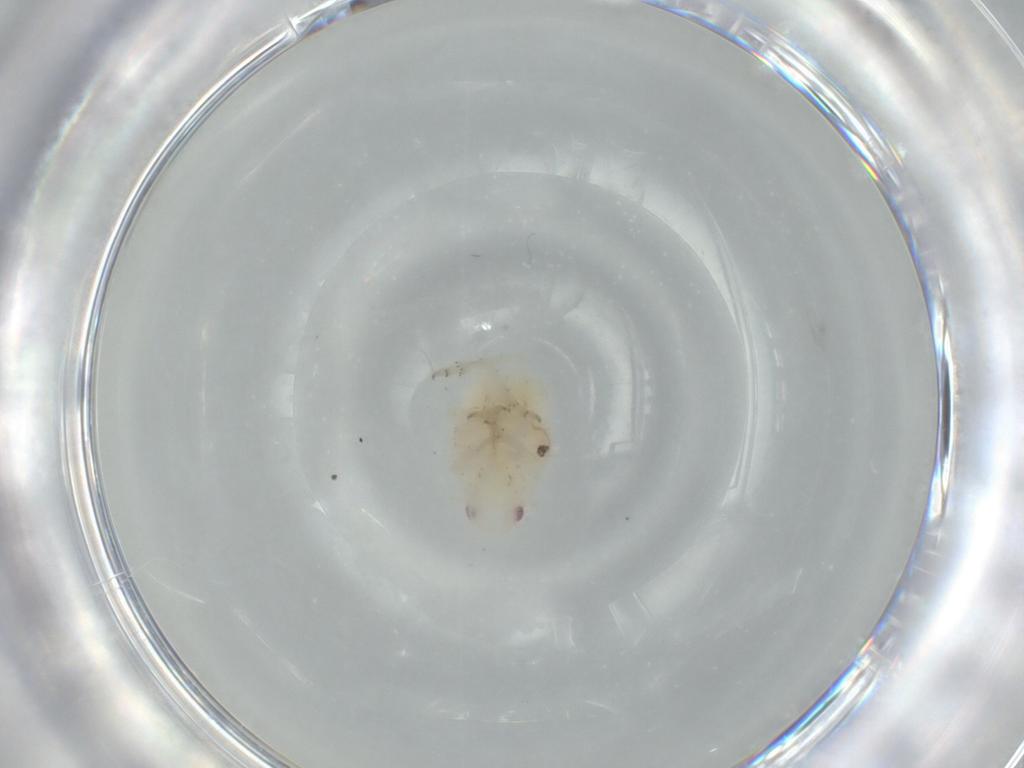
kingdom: Animalia
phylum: Arthropoda
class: Insecta
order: Hemiptera
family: Flatidae
